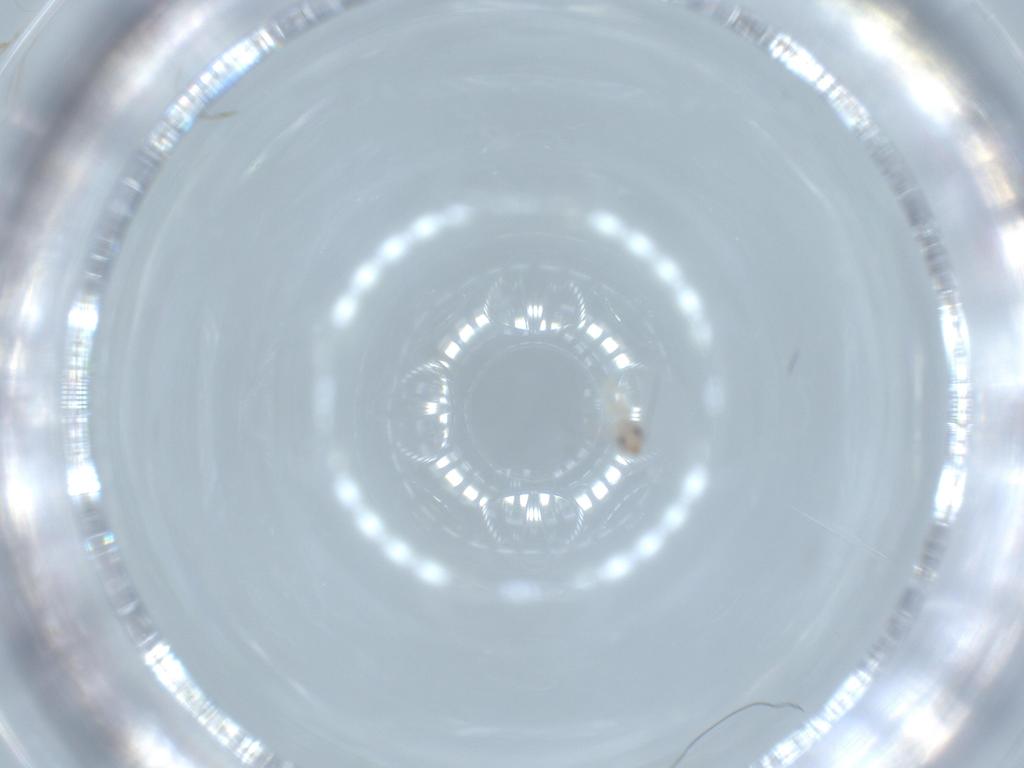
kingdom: Animalia
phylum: Arthropoda
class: Insecta
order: Psocodea
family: Lepidopsocidae
